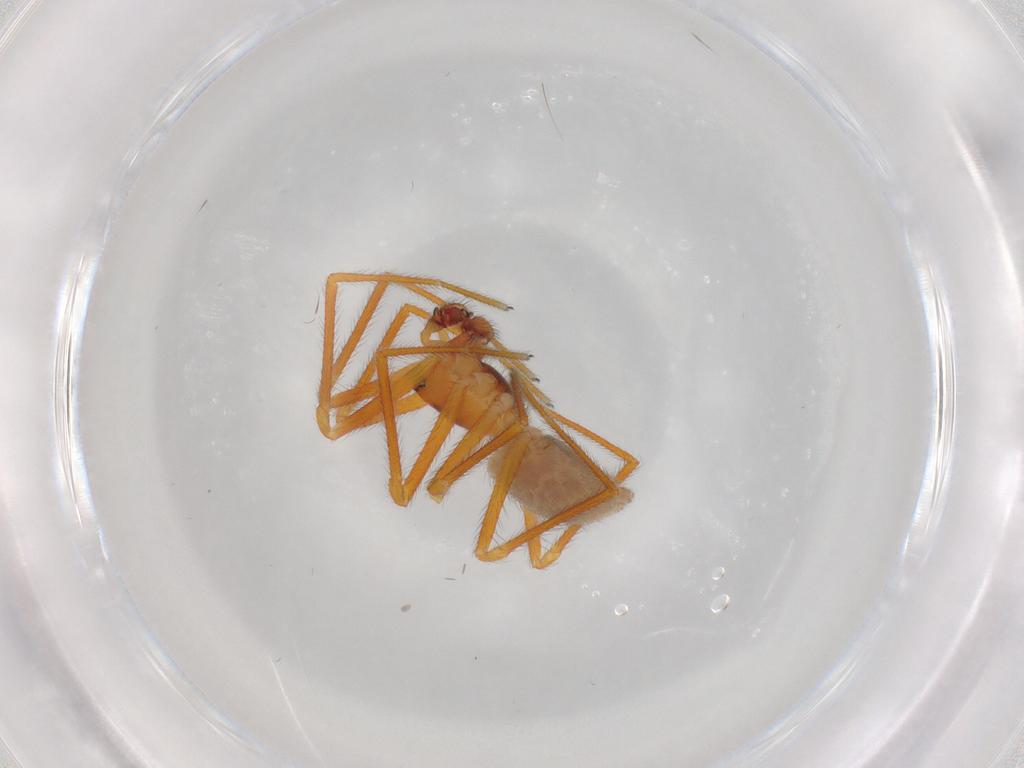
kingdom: Animalia
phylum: Arthropoda
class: Arachnida
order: Araneae
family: Linyphiidae
